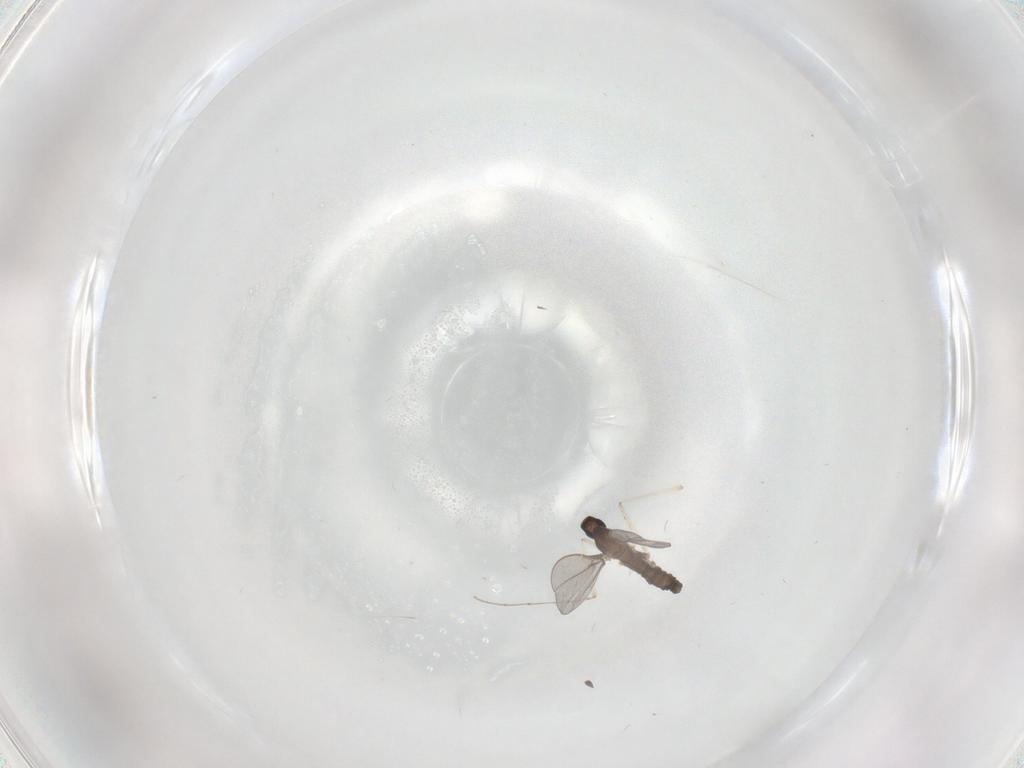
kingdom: Animalia
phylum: Arthropoda
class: Insecta
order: Diptera
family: Cecidomyiidae
